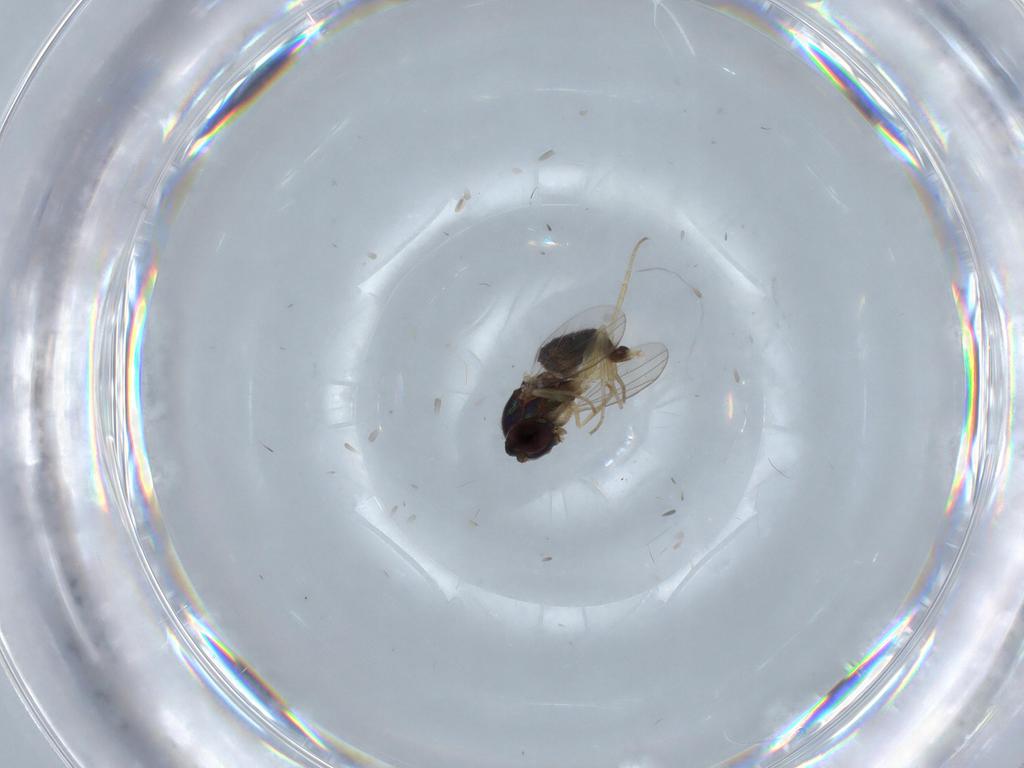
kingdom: Animalia
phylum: Arthropoda
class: Insecta
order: Diptera
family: Dolichopodidae
